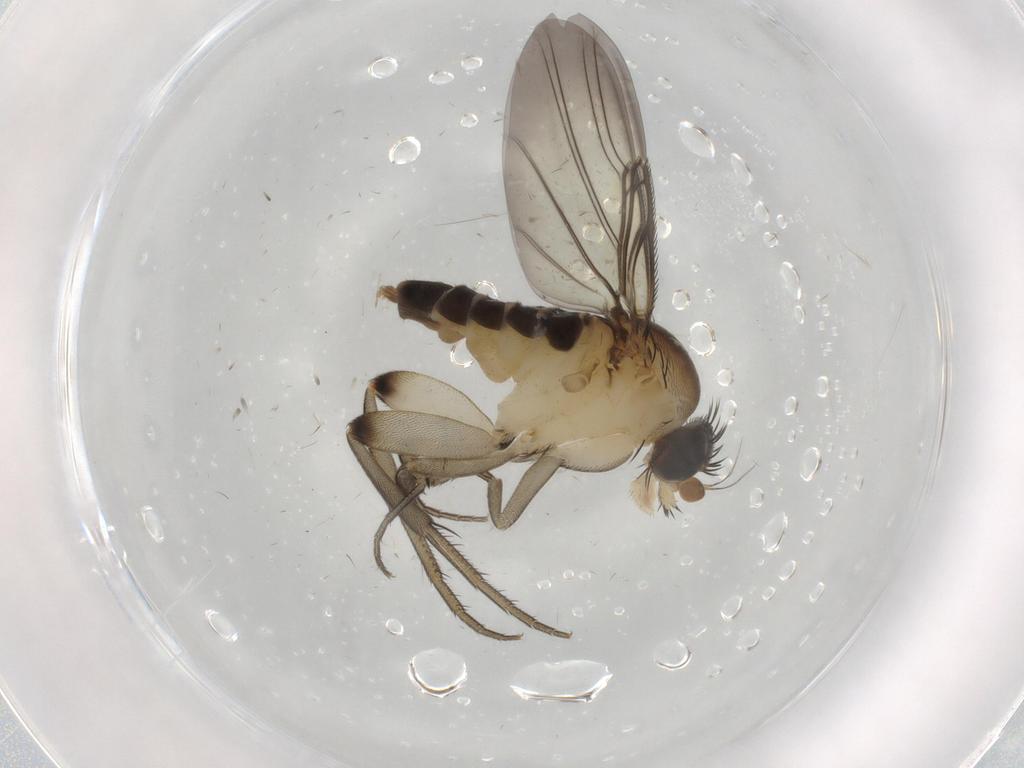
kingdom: Animalia
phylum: Arthropoda
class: Insecta
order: Diptera
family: Phoridae
